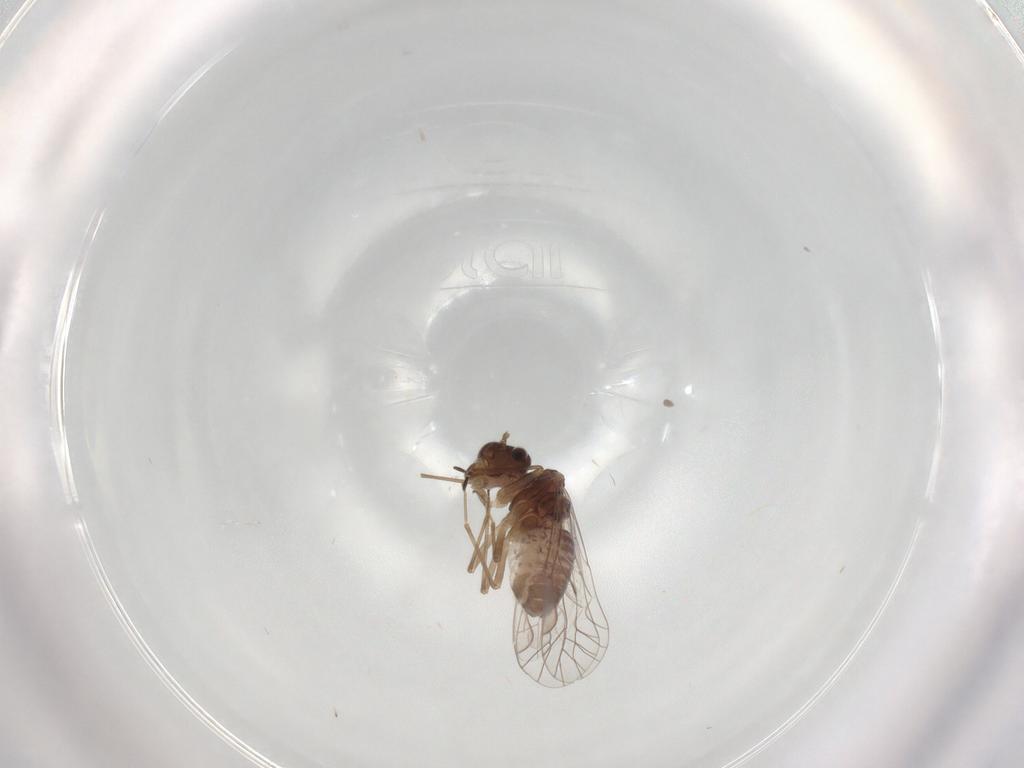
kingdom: Animalia
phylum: Arthropoda
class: Insecta
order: Psocodea
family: Lachesillidae
